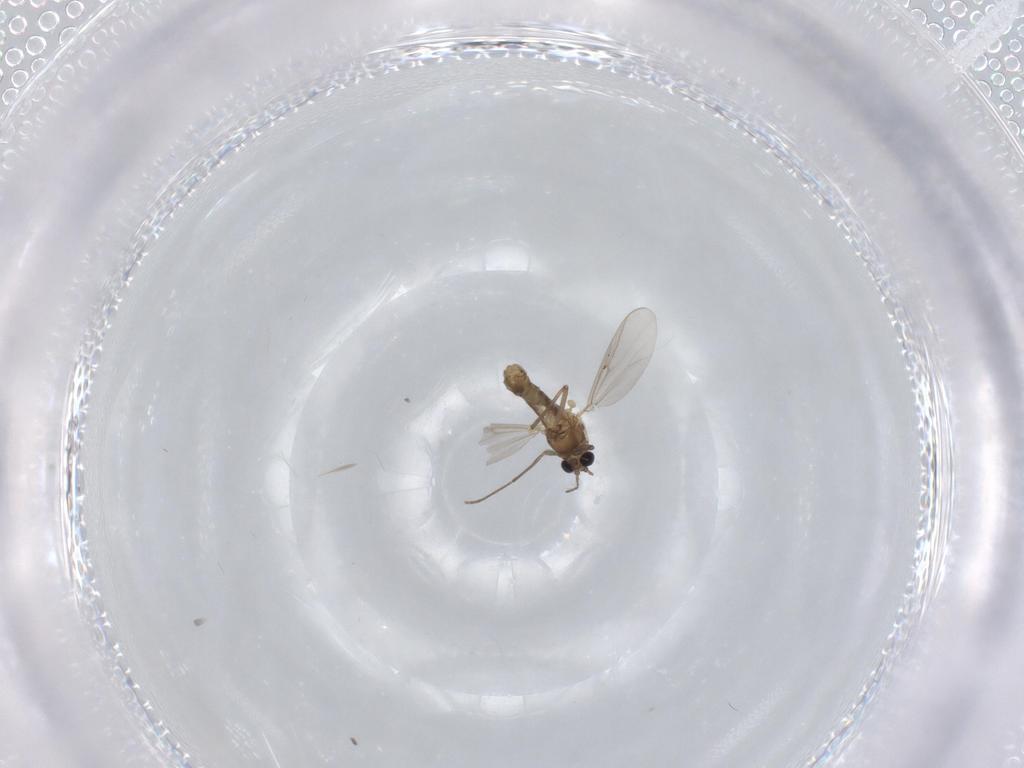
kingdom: Animalia
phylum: Arthropoda
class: Insecta
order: Diptera
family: Chironomidae
